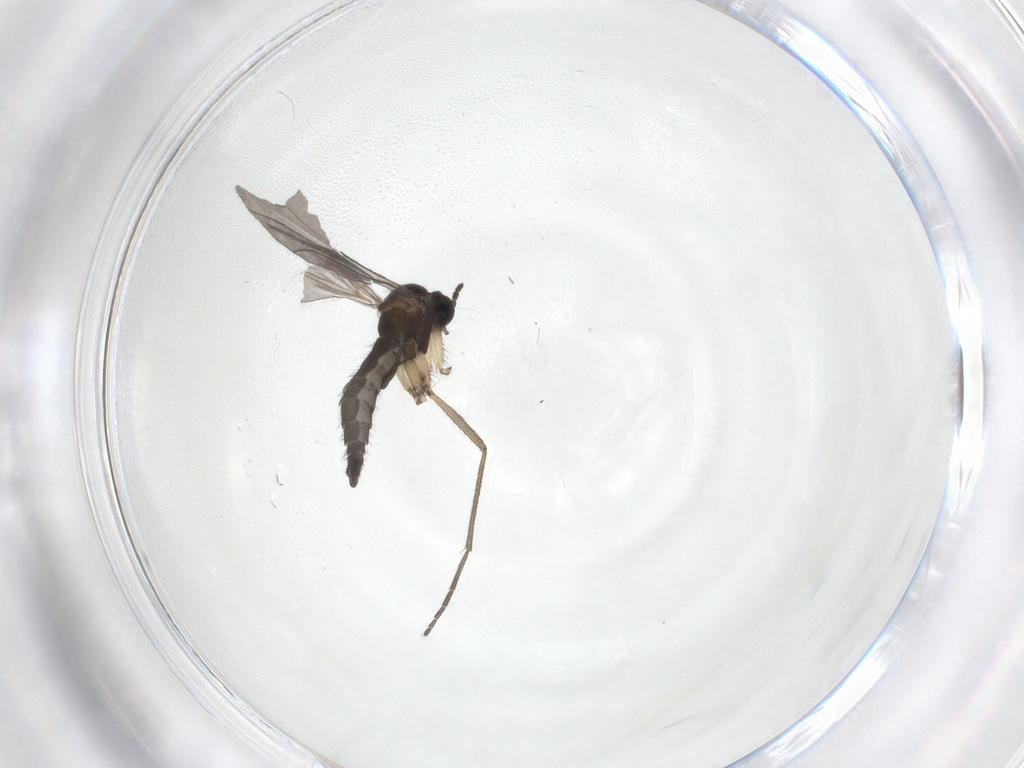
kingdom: Animalia
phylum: Arthropoda
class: Insecta
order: Diptera
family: Sciaridae
